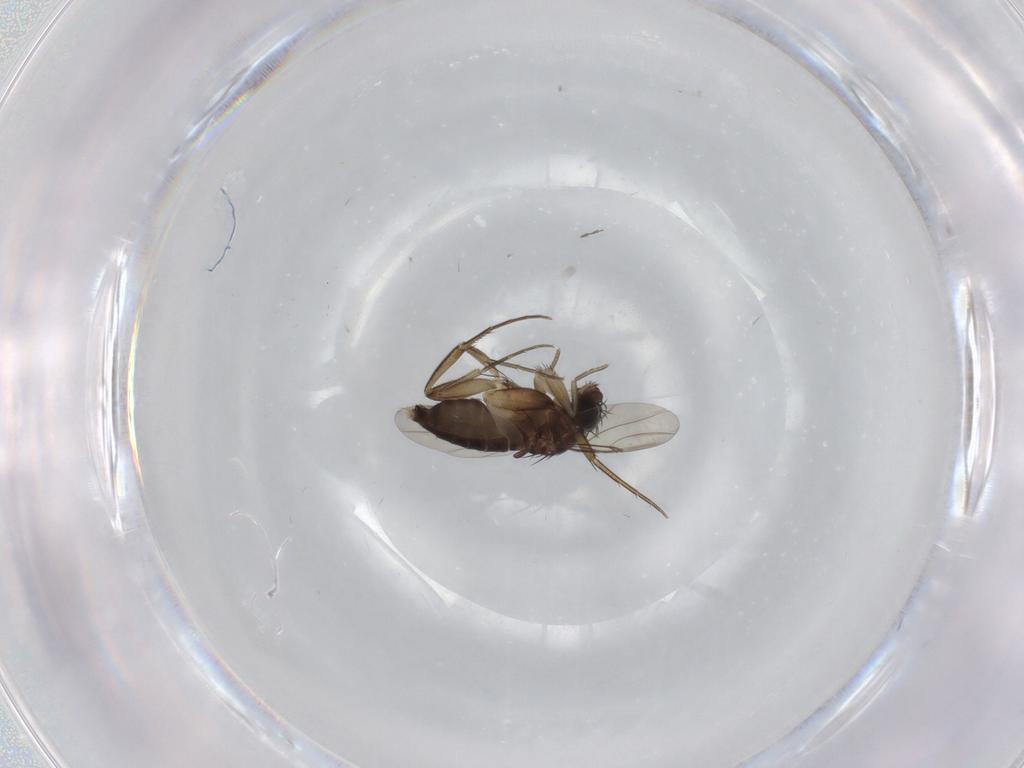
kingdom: Animalia
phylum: Arthropoda
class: Insecta
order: Diptera
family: Phoridae
